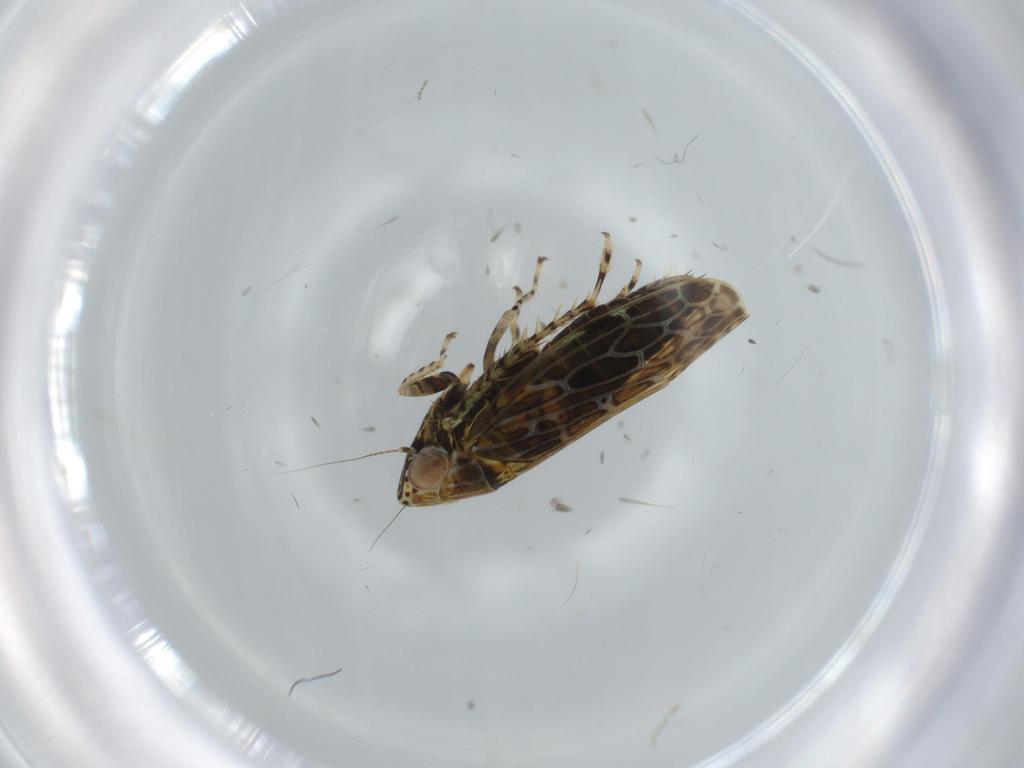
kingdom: Animalia
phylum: Arthropoda
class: Insecta
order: Hemiptera
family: Cicadellidae
